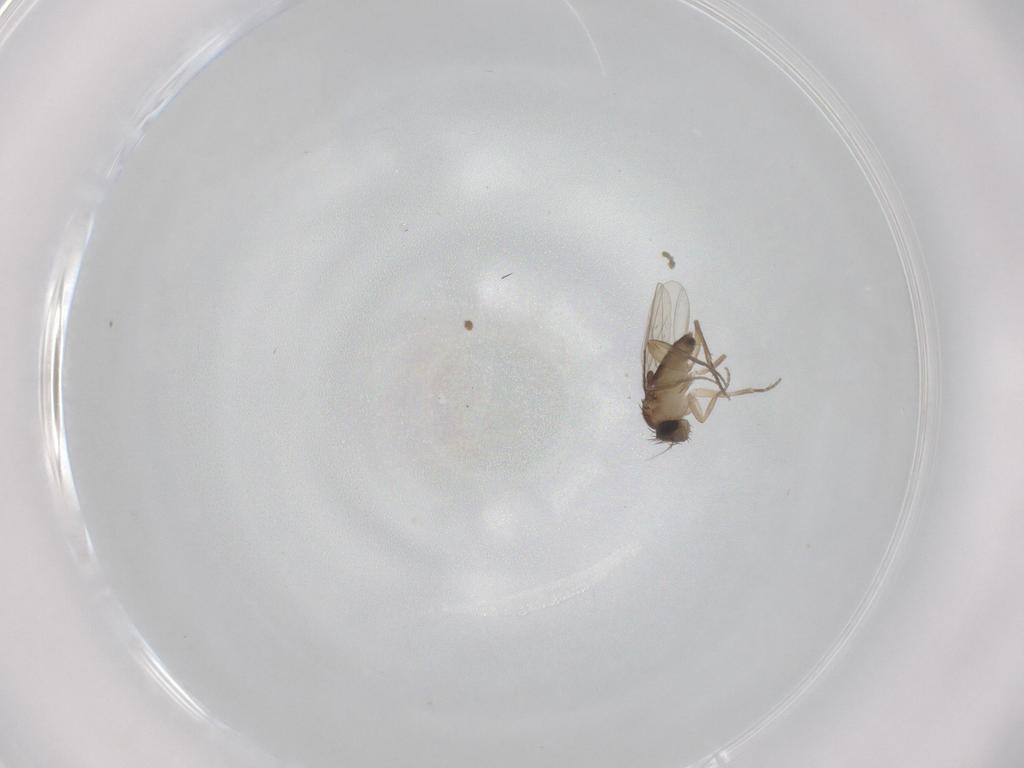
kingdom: Animalia
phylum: Arthropoda
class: Insecta
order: Diptera
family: Phoridae
